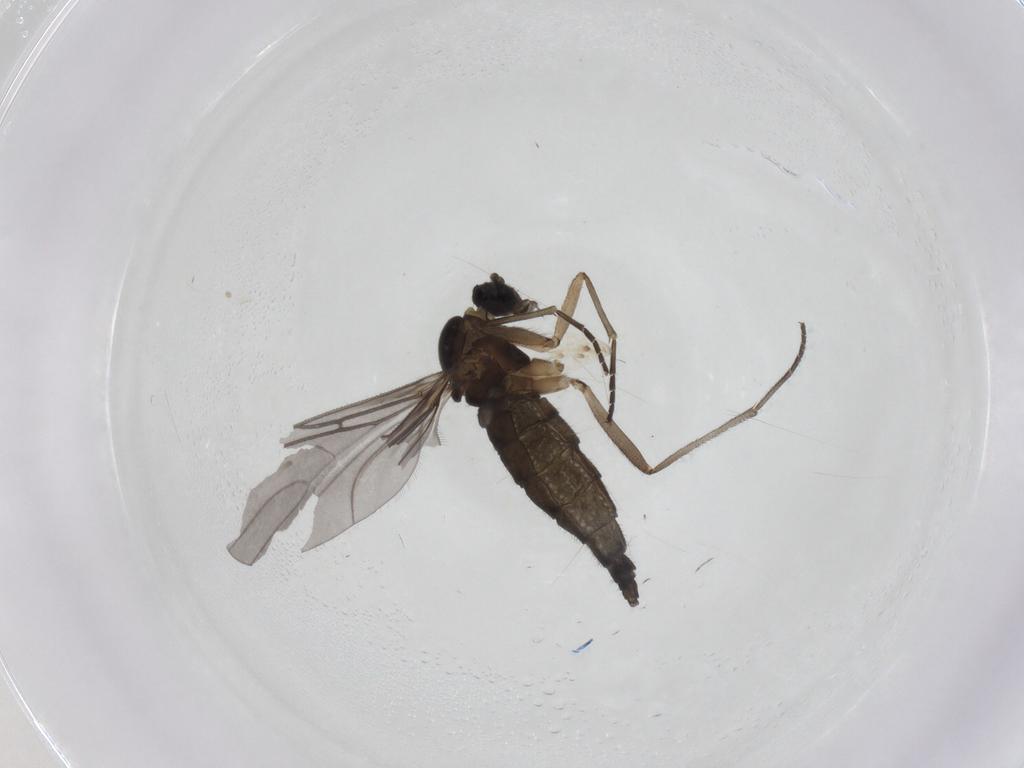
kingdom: Animalia
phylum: Arthropoda
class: Insecta
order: Diptera
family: Sciaridae
